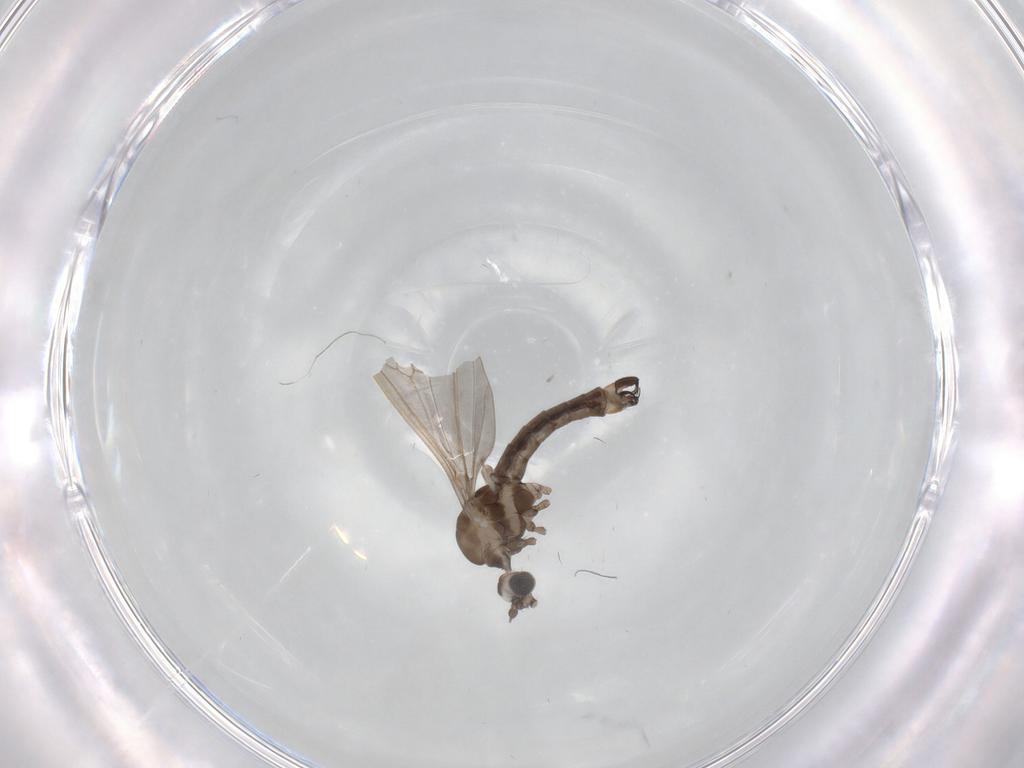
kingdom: Animalia
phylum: Arthropoda
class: Insecta
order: Diptera
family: Limoniidae
